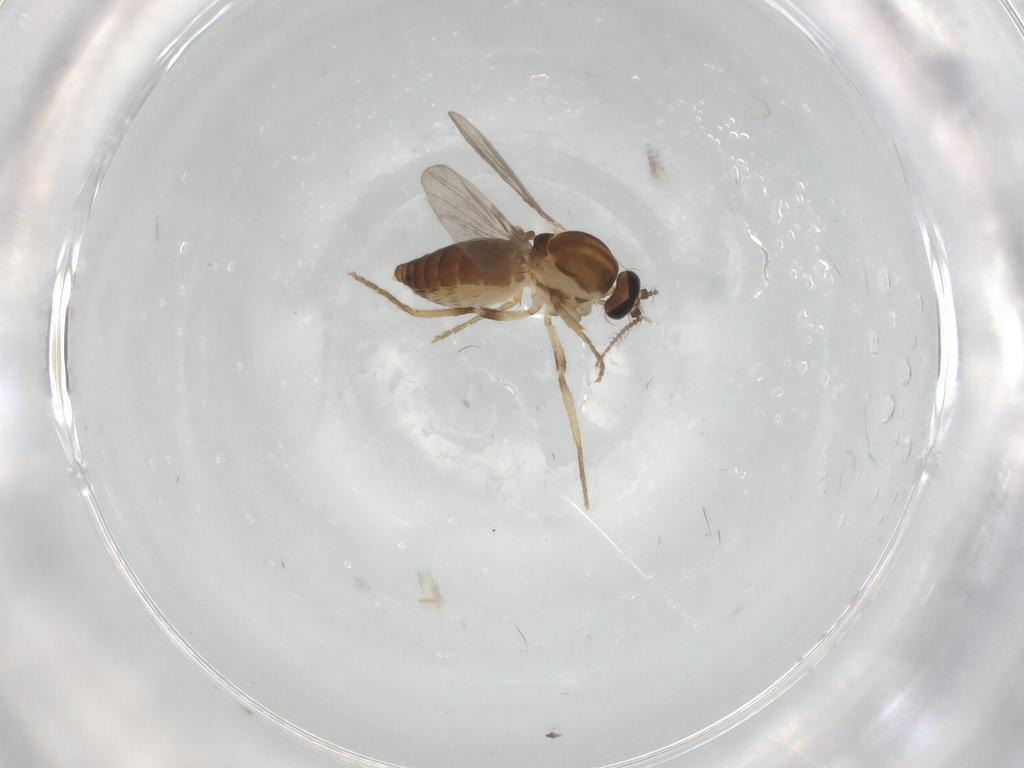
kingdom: Animalia
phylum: Arthropoda
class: Insecta
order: Diptera
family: Ceratopogonidae
